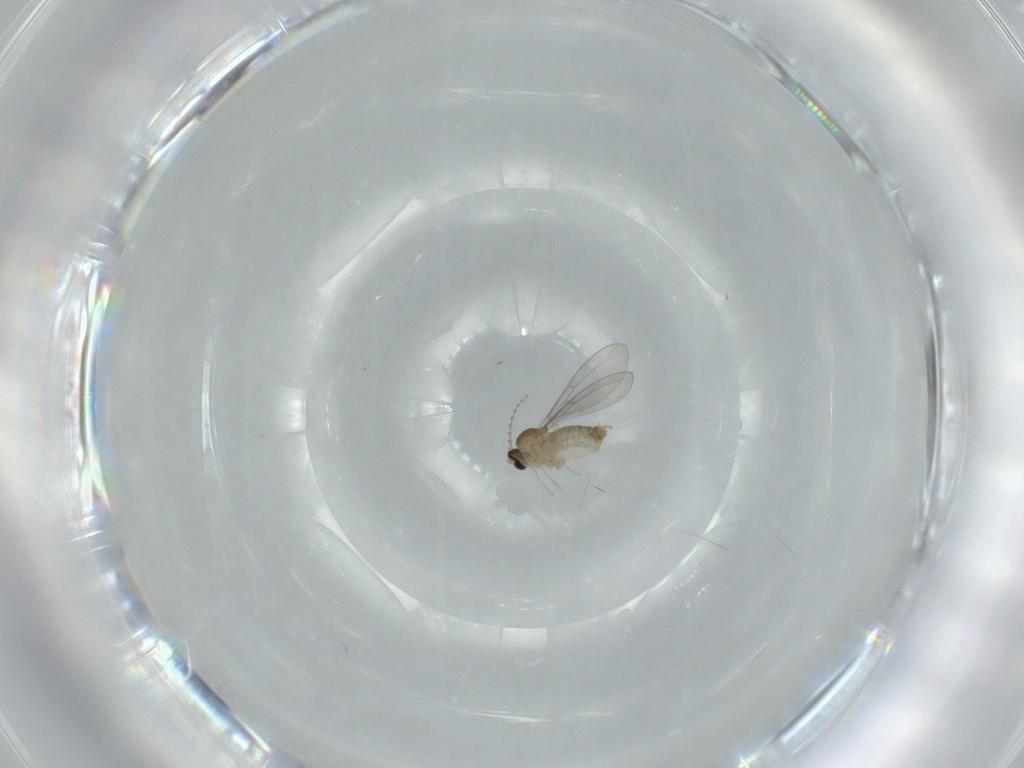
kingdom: Animalia
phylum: Arthropoda
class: Insecta
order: Diptera
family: Cecidomyiidae
